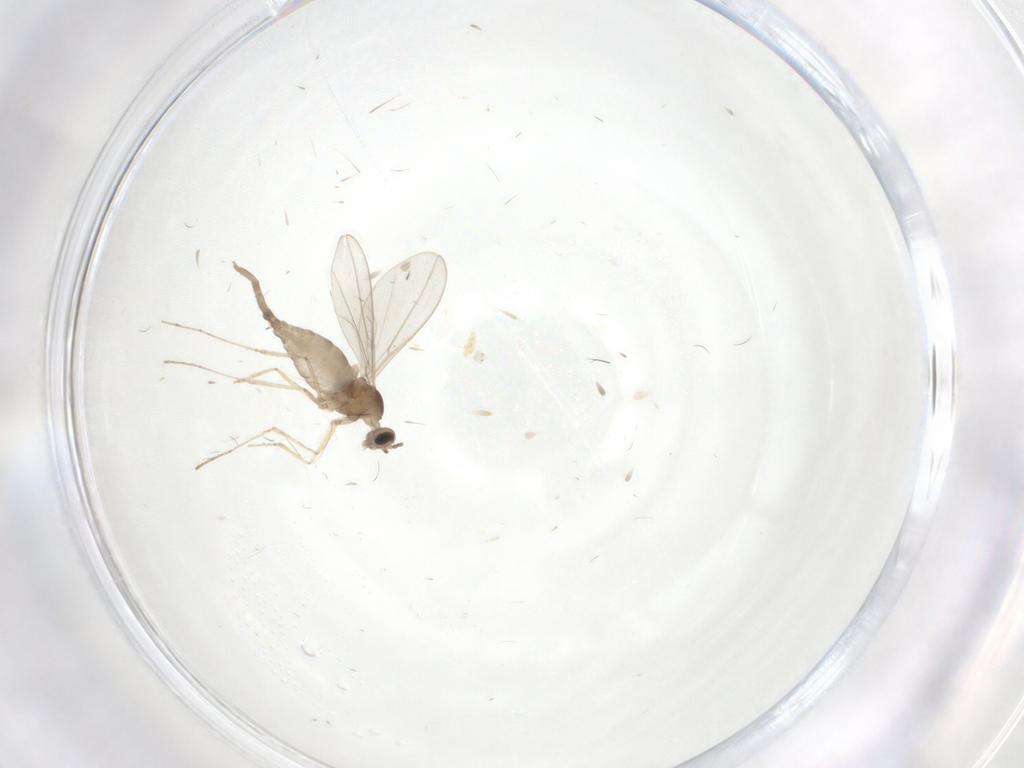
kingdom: Animalia
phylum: Arthropoda
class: Insecta
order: Diptera
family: Cecidomyiidae
